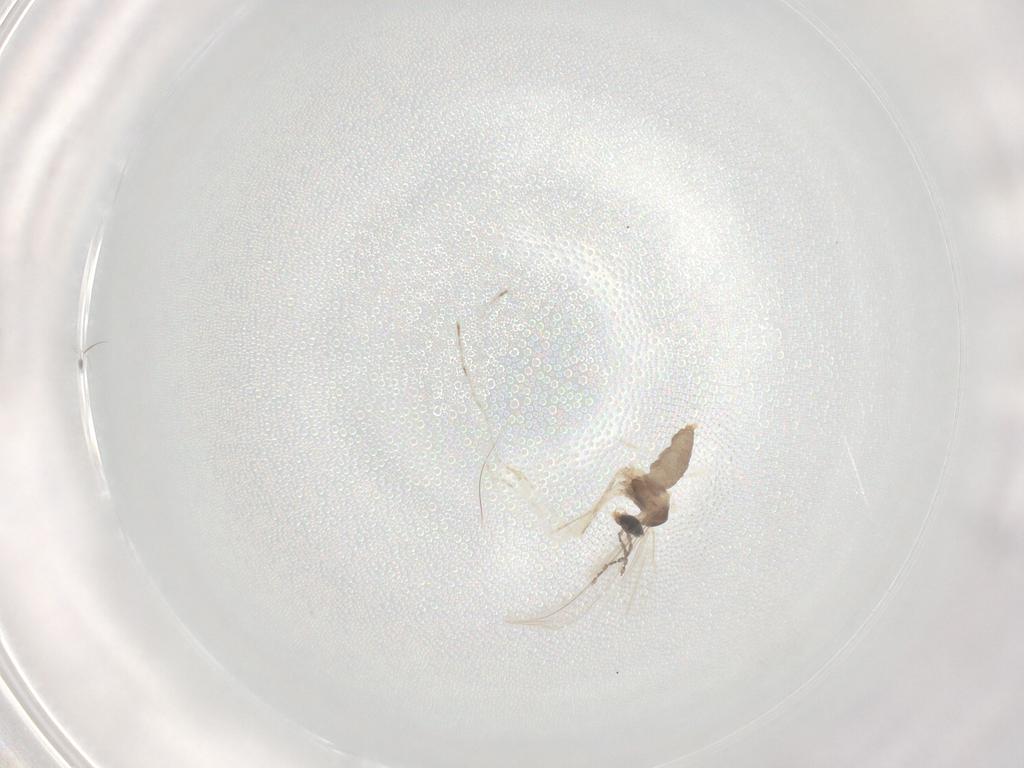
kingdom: Animalia
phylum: Arthropoda
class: Insecta
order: Diptera
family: Cecidomyiidae
